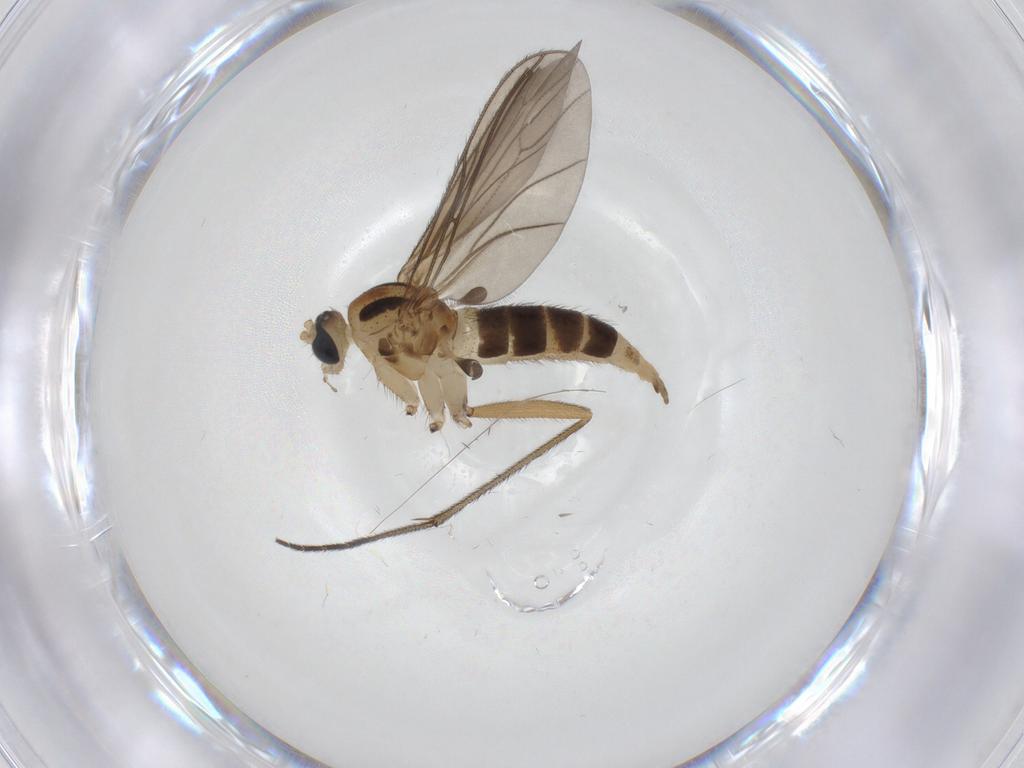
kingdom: Animalia
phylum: Arthropoda
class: Insecta
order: Diptera
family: Sciaridae
